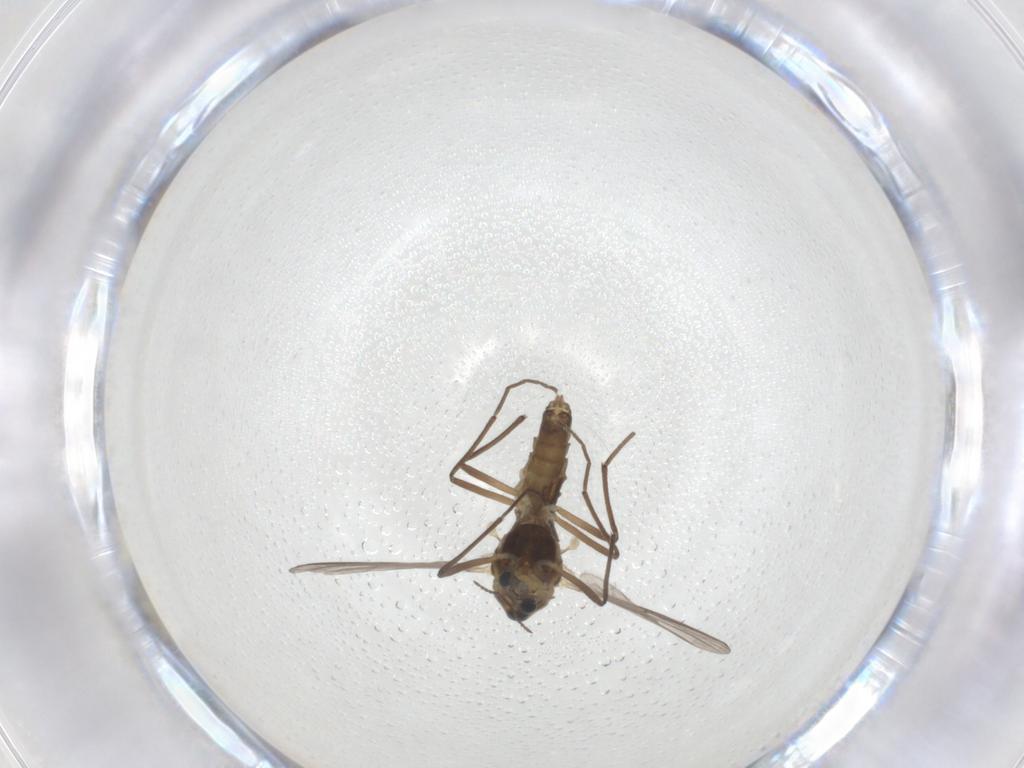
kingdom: Animalia
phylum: Arthropoda
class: Insecta
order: Diptera
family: Chironomidae
